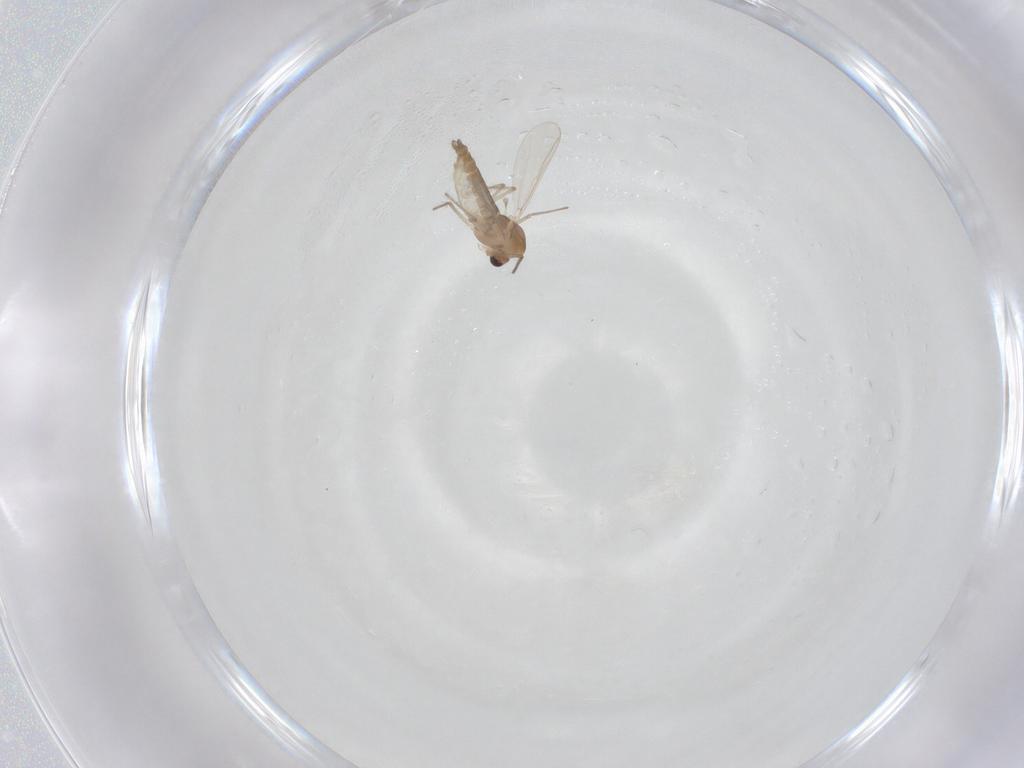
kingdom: Animalia
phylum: Arthropoda
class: Insecta
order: Diptera
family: Chironomidae
